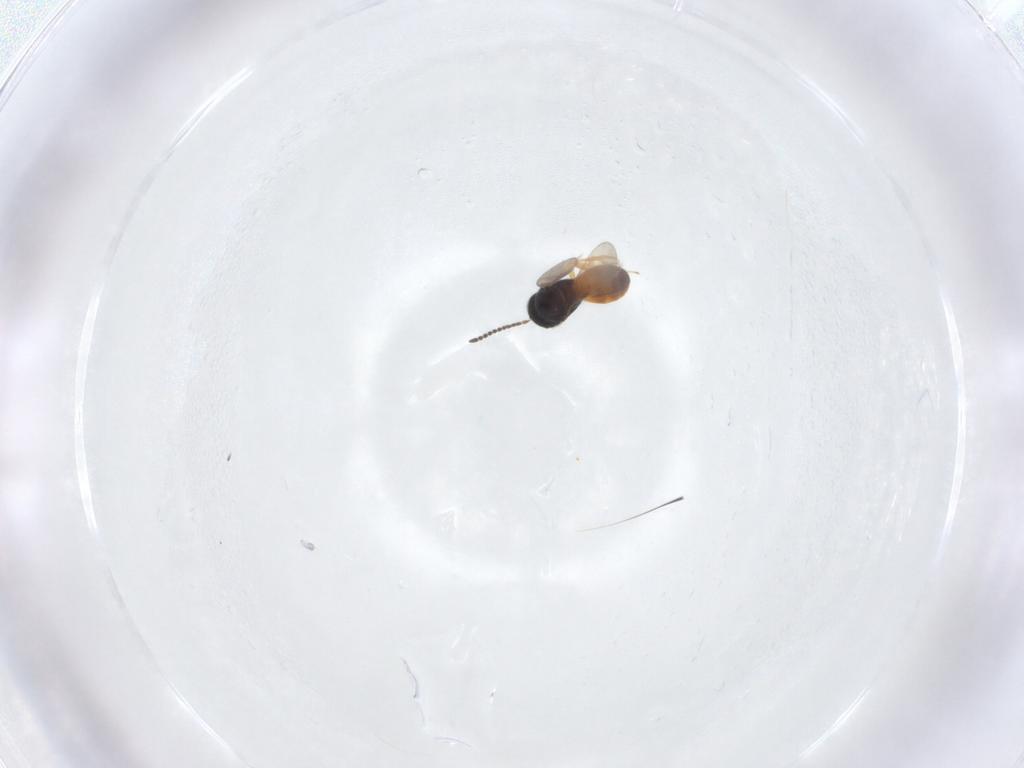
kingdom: Animalia
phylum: Arthropoda
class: Insecta
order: Hymenoptera
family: Scelionidae
